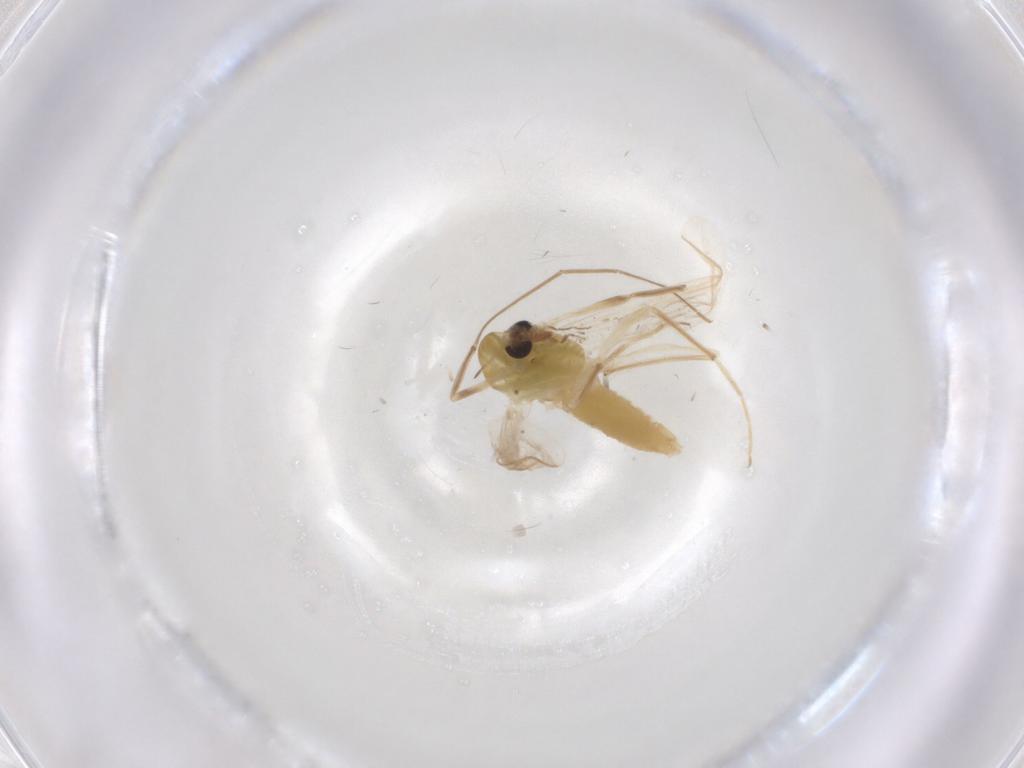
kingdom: Animalia
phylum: Arthropoda
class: Insecta
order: Diptera
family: Chironomidae
